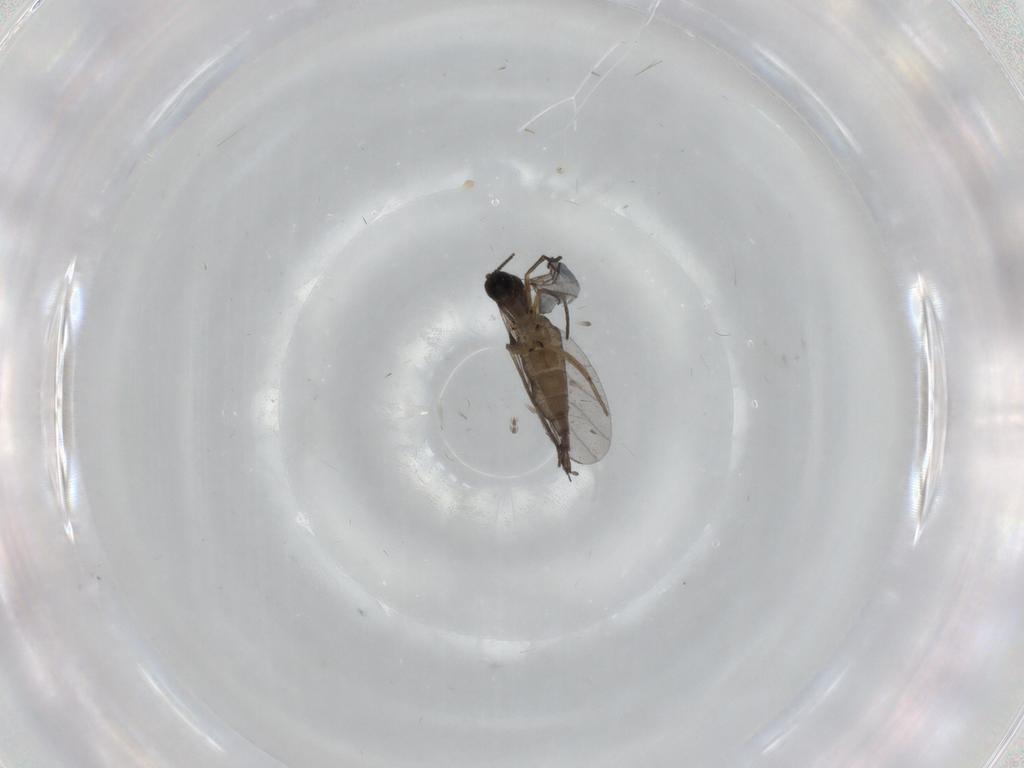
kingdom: Animalia
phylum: Arthropoda
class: Insecta
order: Diptera
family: Sciaridae
